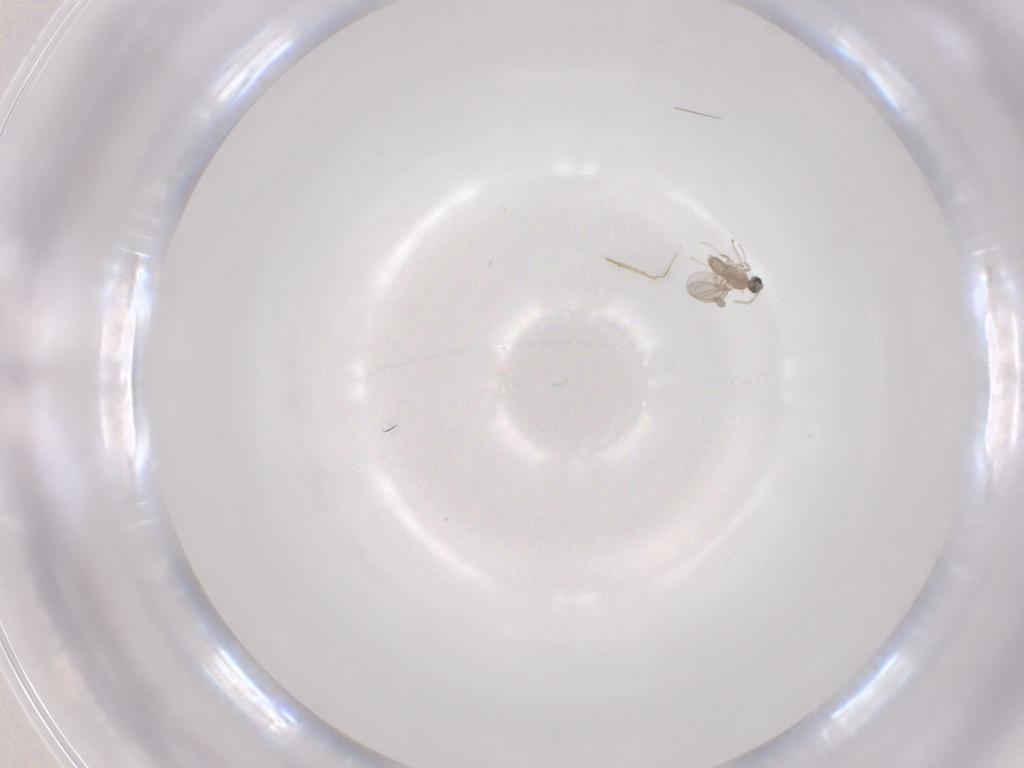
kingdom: Animalia
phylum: Arthropoda
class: Insecta
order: Diptera
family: Cecidomyiidae
